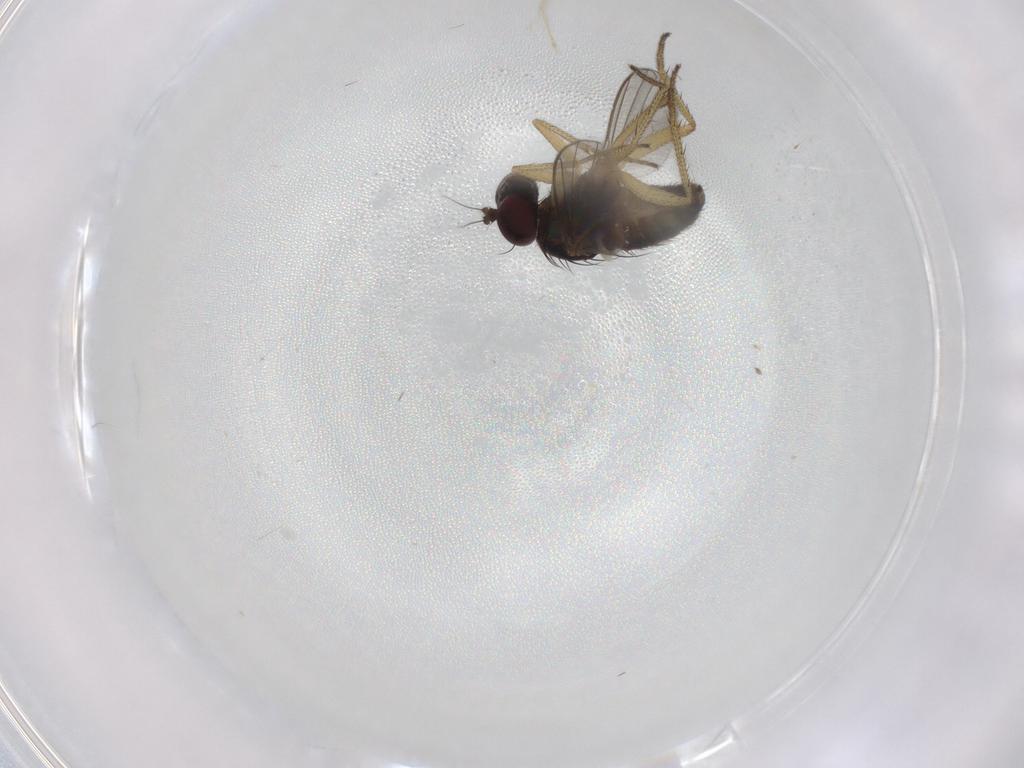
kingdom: Animalia
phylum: Arthropoda
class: Insecta
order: Diptera
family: Dolichopodidae
